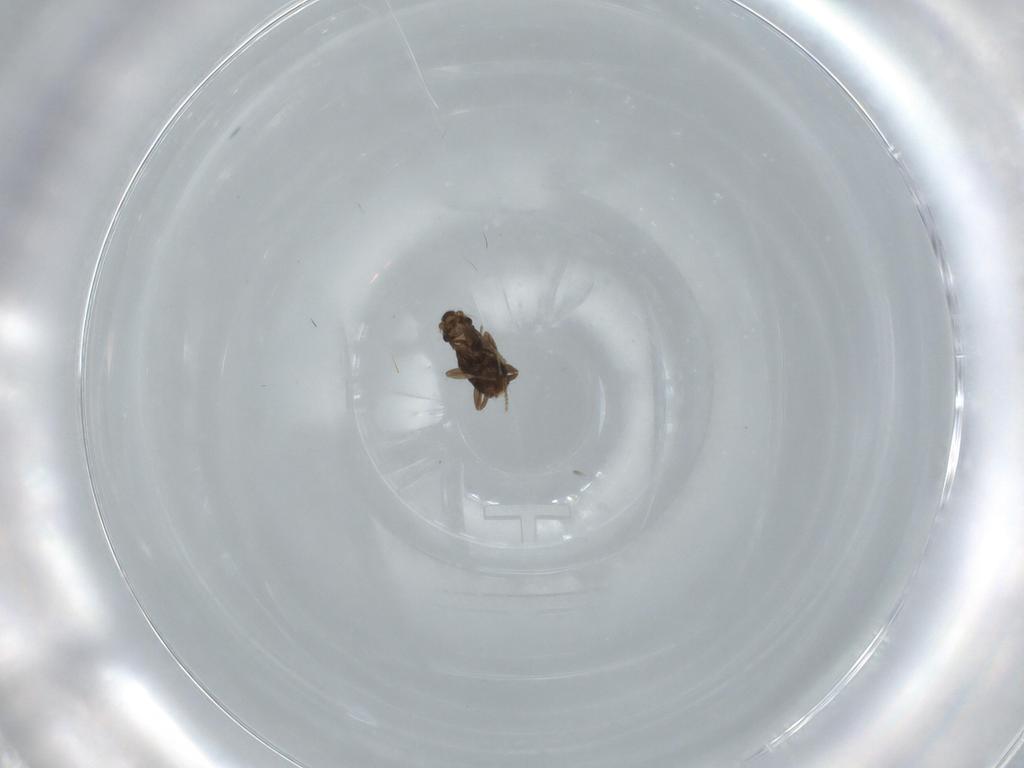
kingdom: Animalia
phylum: Arthropoda
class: Insecta
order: Diptera
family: Phoridae
